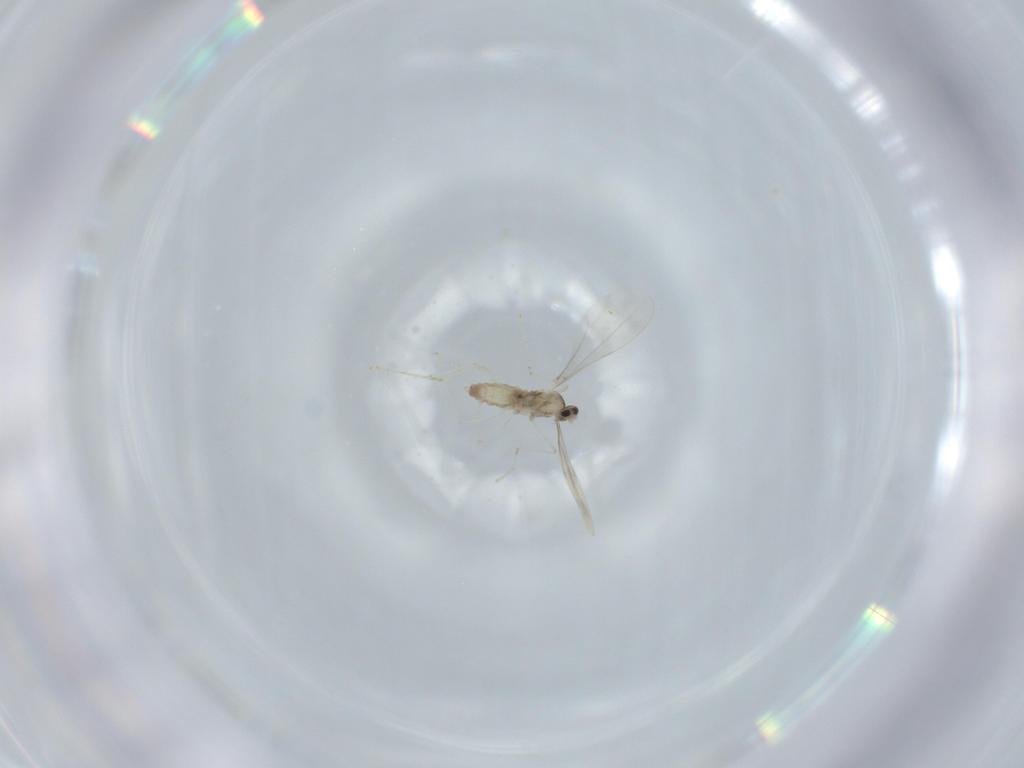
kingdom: Animalia
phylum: Arthropoda
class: Insecta
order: Diptera
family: Cecidomyiidae
